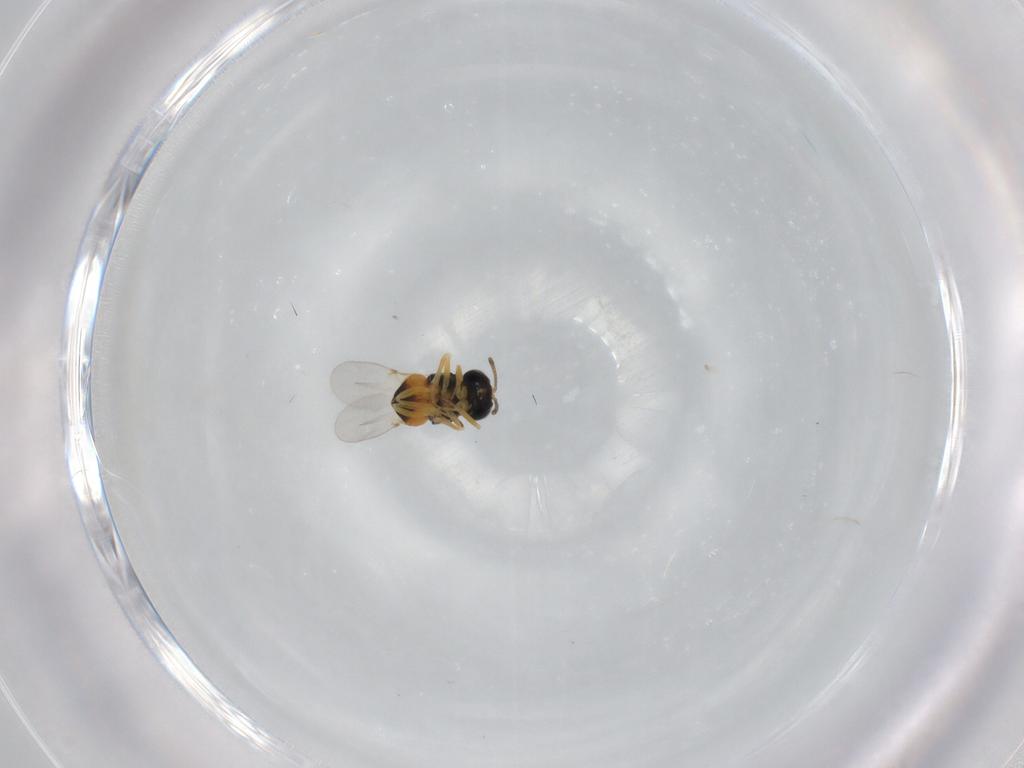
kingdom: Animalia
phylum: Arthropoda
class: Insecta
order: Hymenoptera
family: Encyrtidae
